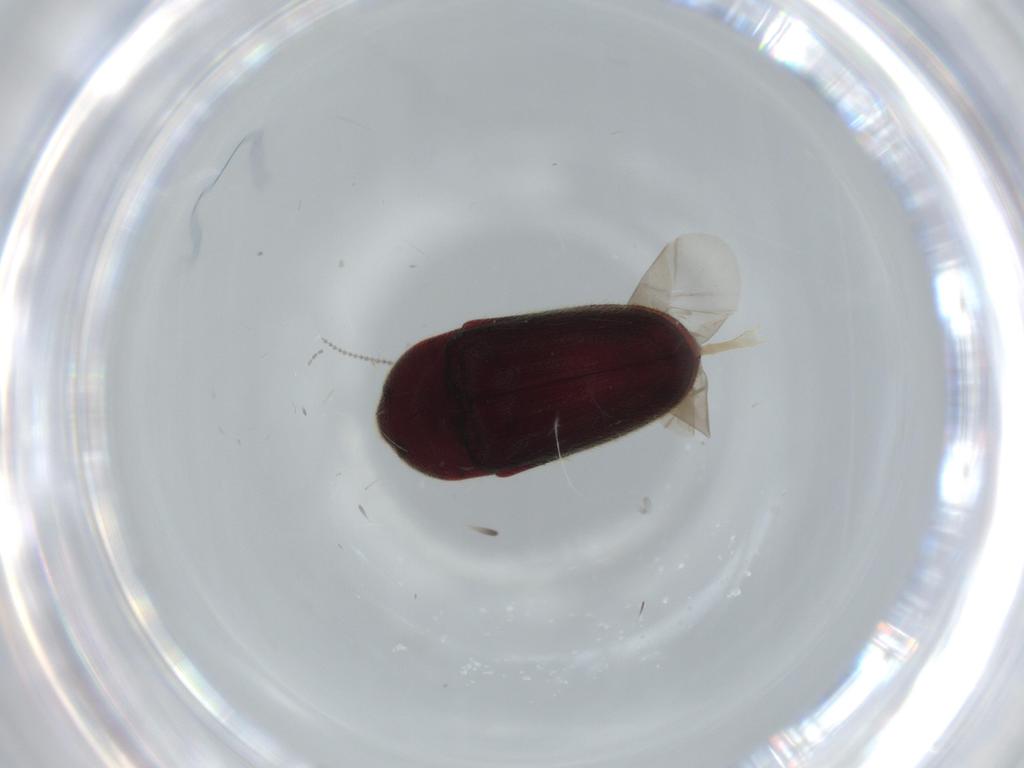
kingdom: Animalia
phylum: Arthropoda
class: Insecta
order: Coleoptera
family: Throscidae
